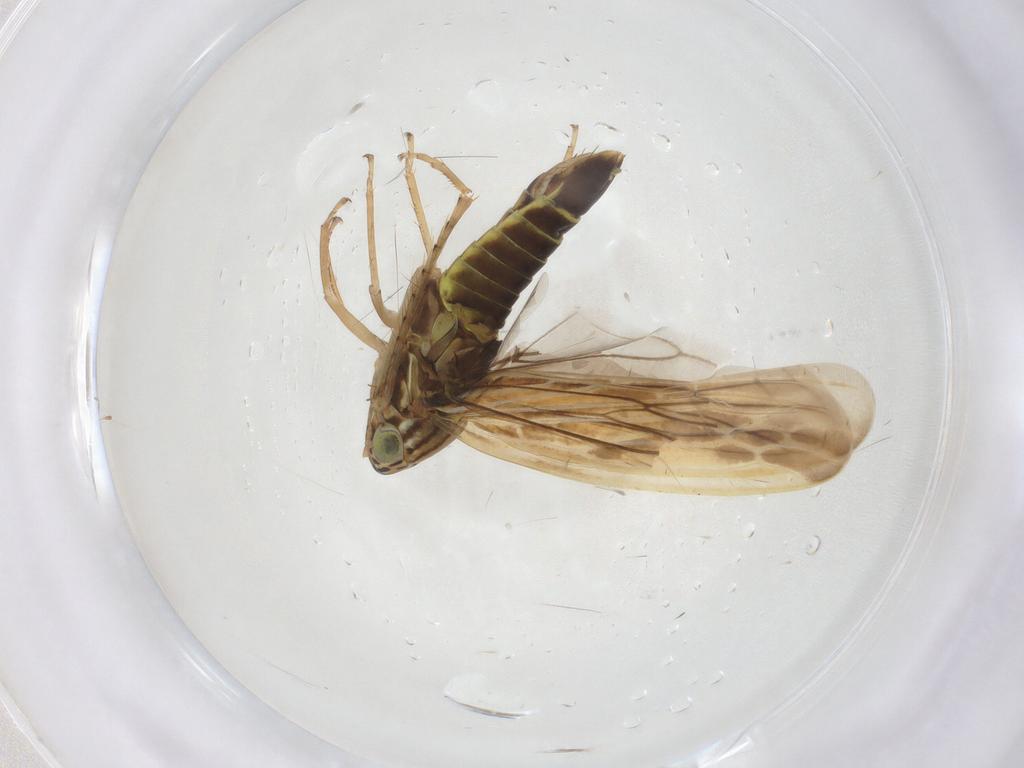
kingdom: Animalia
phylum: Arthropoda
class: Insecta
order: Hemiptera
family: Cicadellidae
